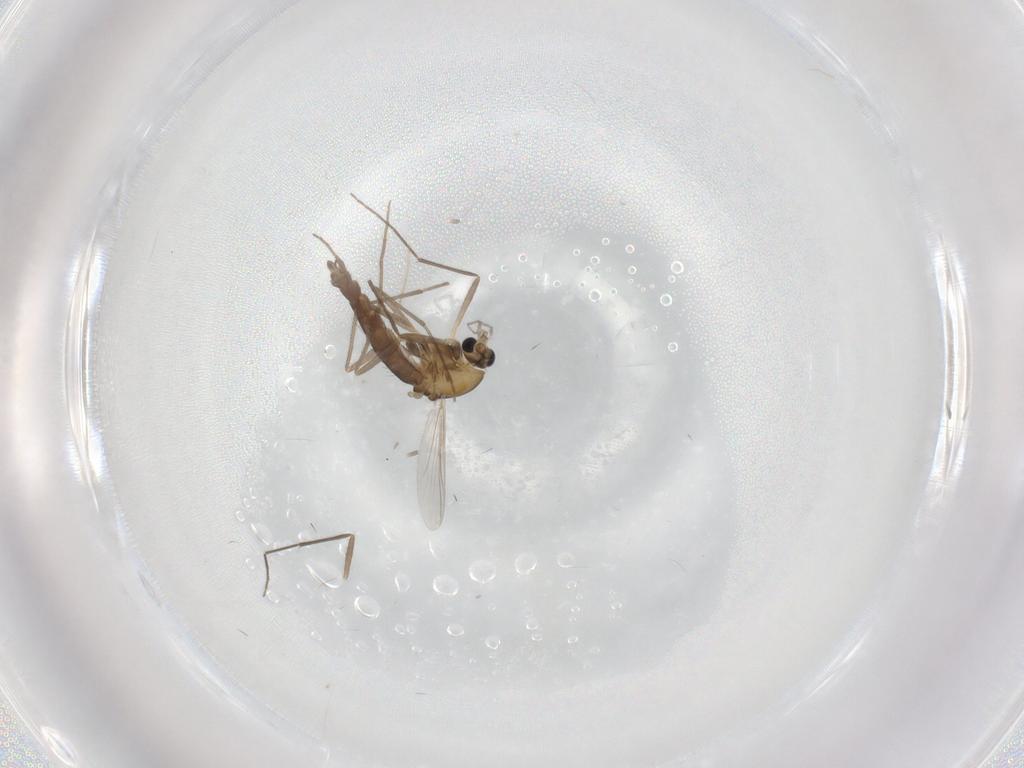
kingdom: Animalia
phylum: Arthropoda
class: Insecta
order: Diptera
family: Chironomidae
